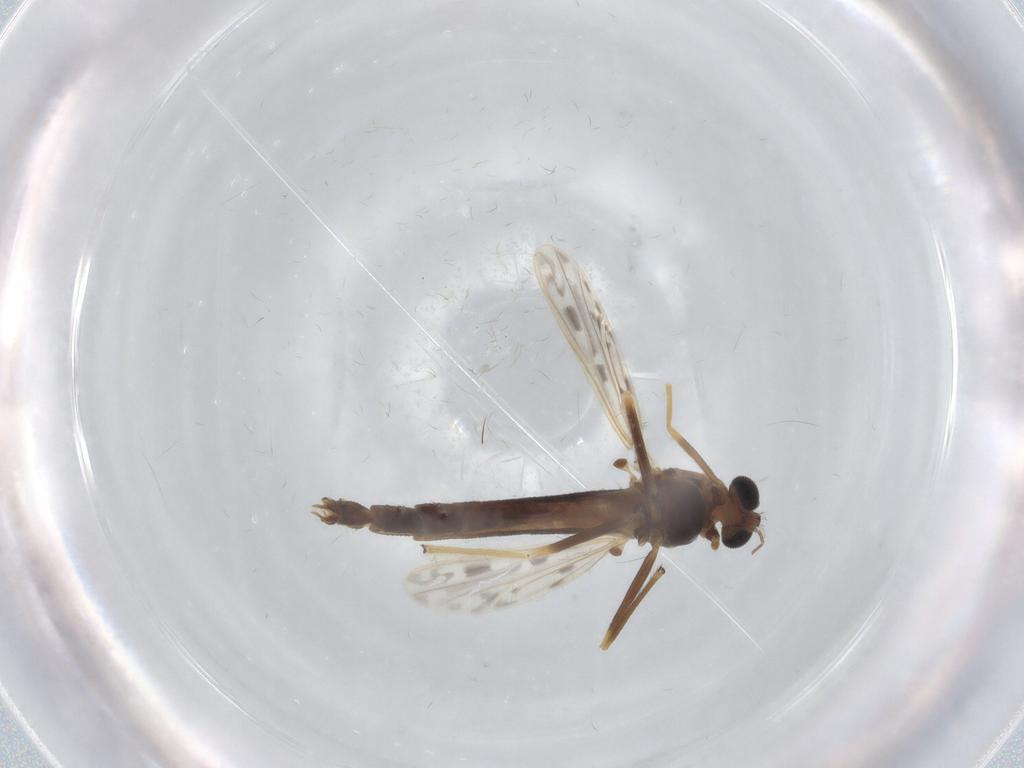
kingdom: Animalia
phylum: Arthropoda
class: Insecta
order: Diptera
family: Chironomidae
